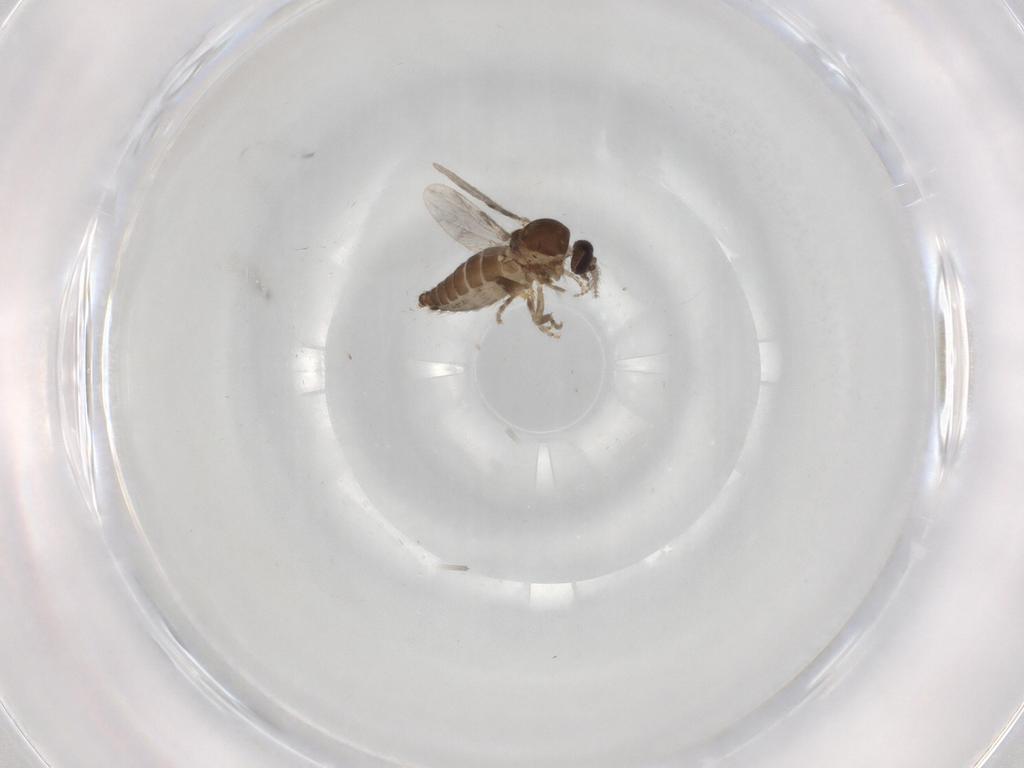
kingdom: Animalia
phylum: Arthropoda
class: Insecta
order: Diptera
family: Ceratopogonidae
